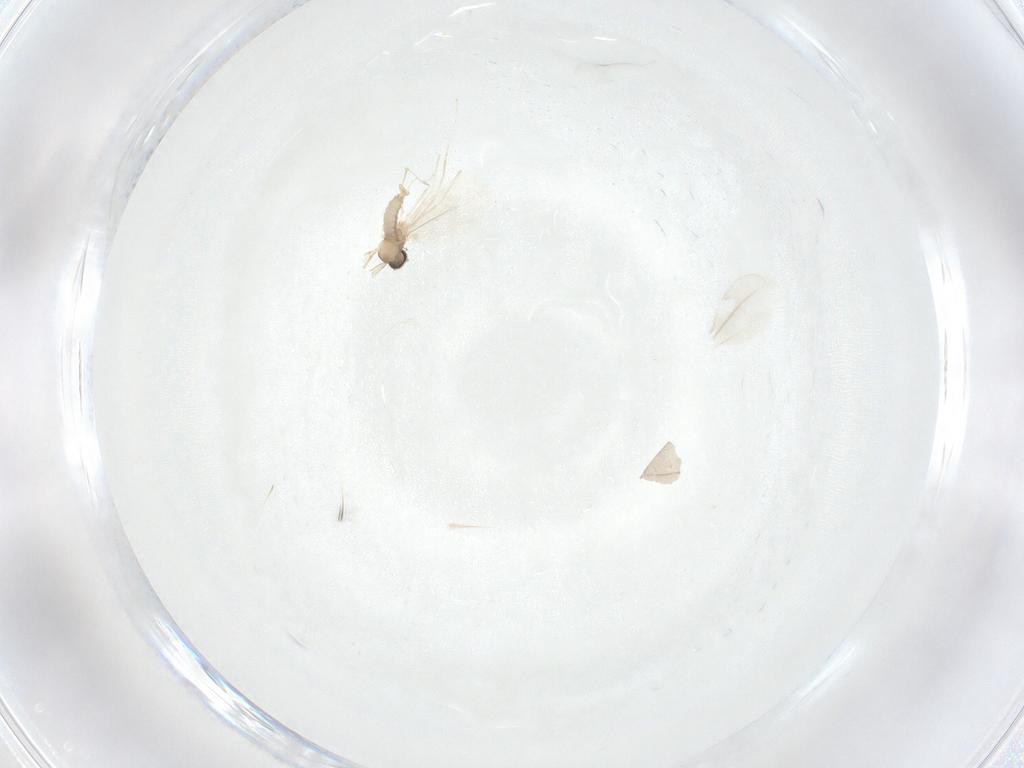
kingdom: Animalia
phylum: Arthropoda
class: Insecta
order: Diptera
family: Cecidomyiidae
